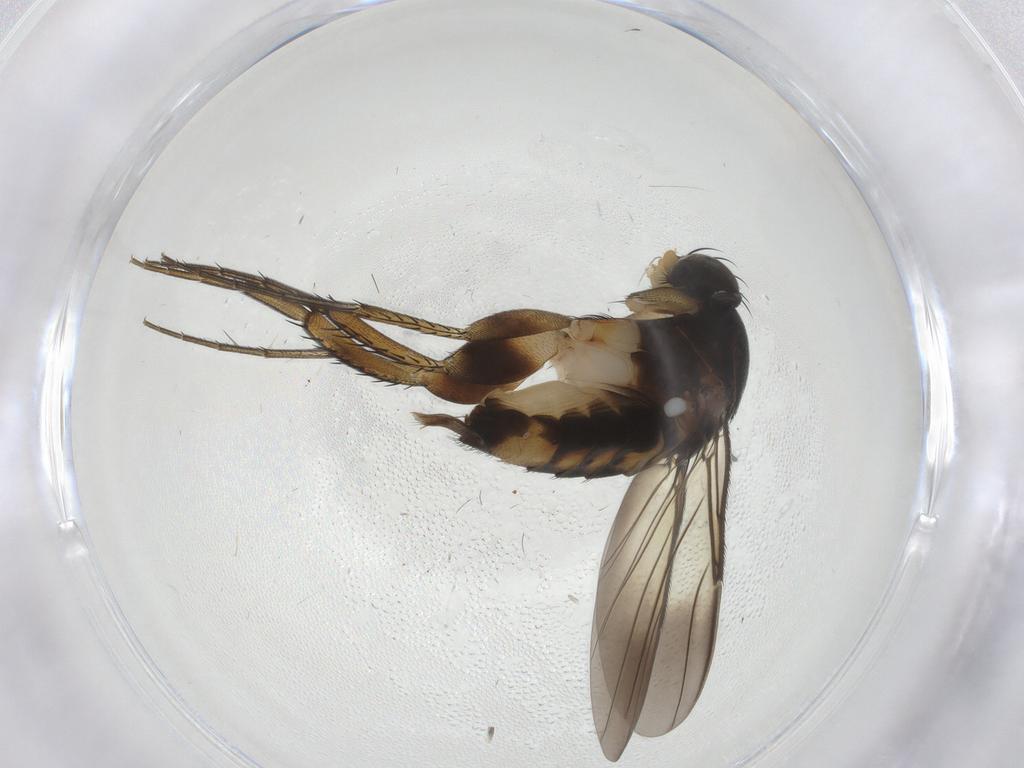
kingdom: Animalia
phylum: Arthropoda
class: Insecta
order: Diptera
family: Phoridae
